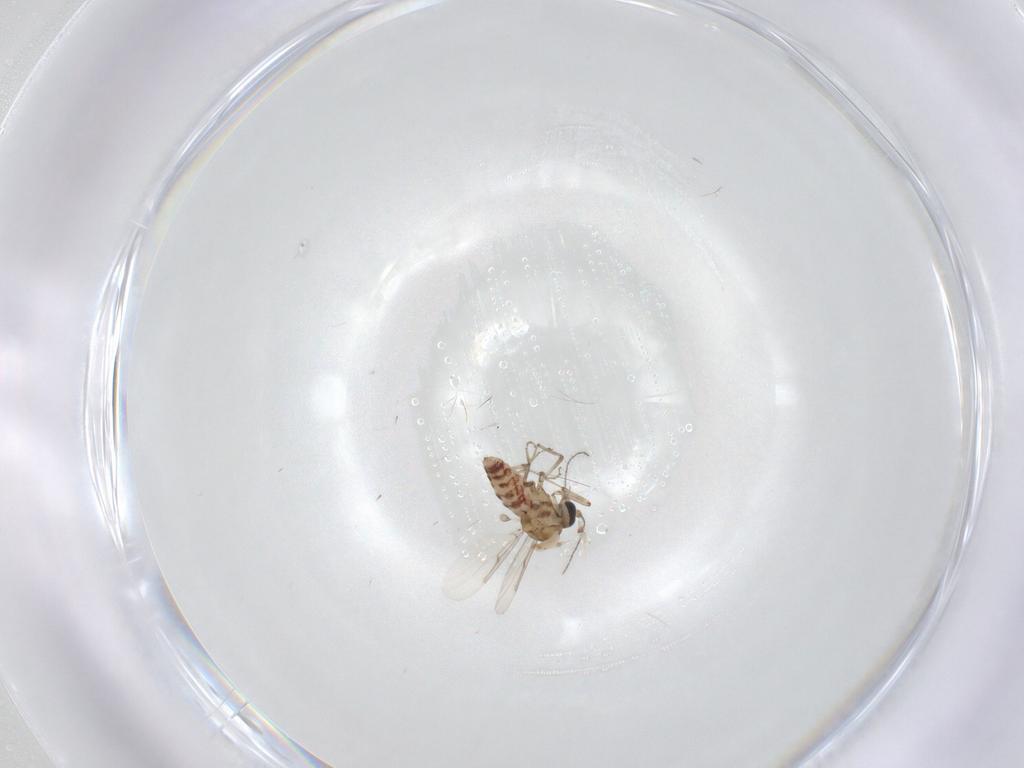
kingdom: Animalia
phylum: Arthropoda
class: Insecta
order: Diptera
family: Ceratopogonidae
